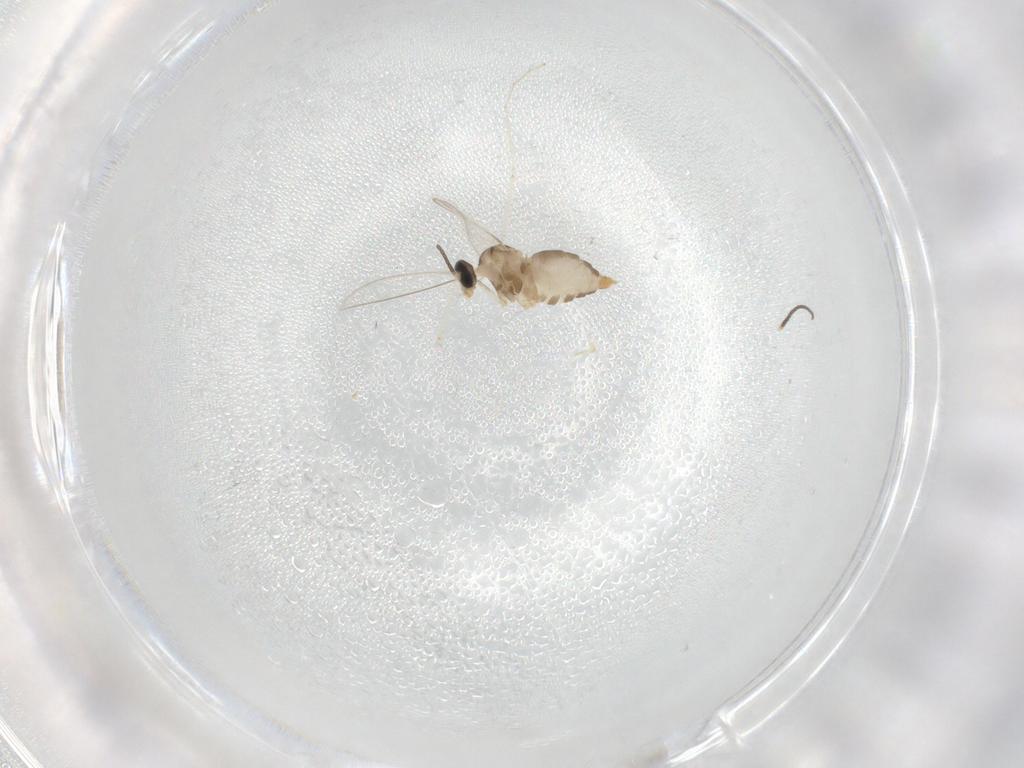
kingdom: Animalia
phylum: Arthropoda
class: Insecta
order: Diptera
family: Sphaeroceridae
